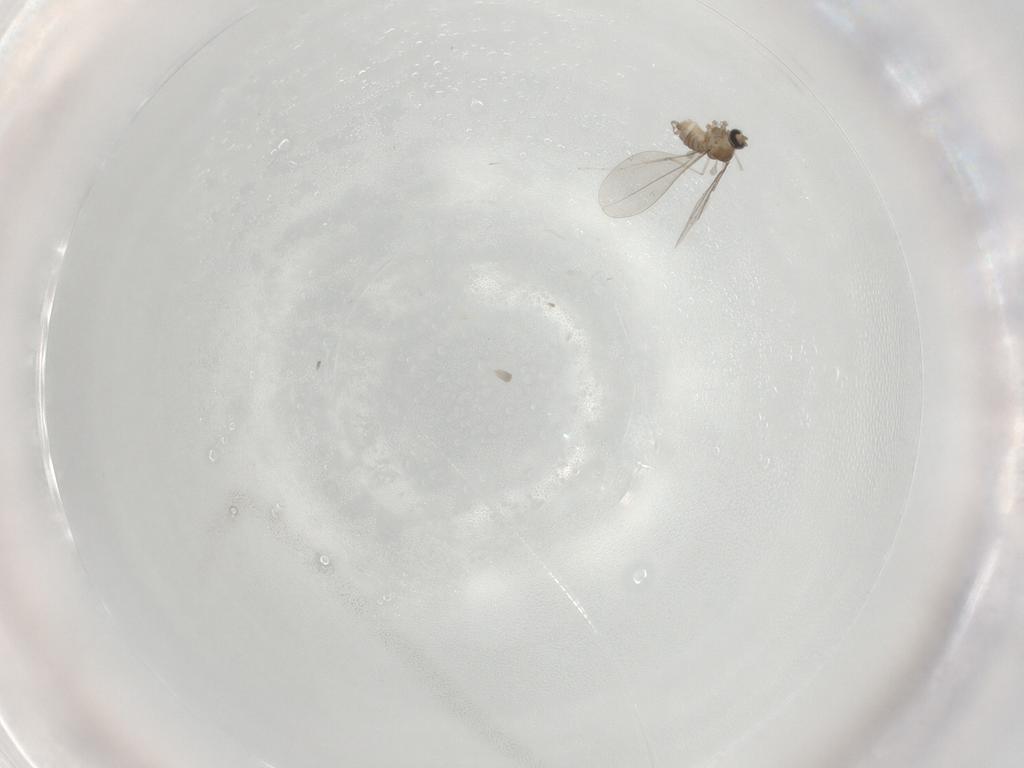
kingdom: Animalia
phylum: Arthropoda
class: Insecta
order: Diptera
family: Cecidomyiidae
